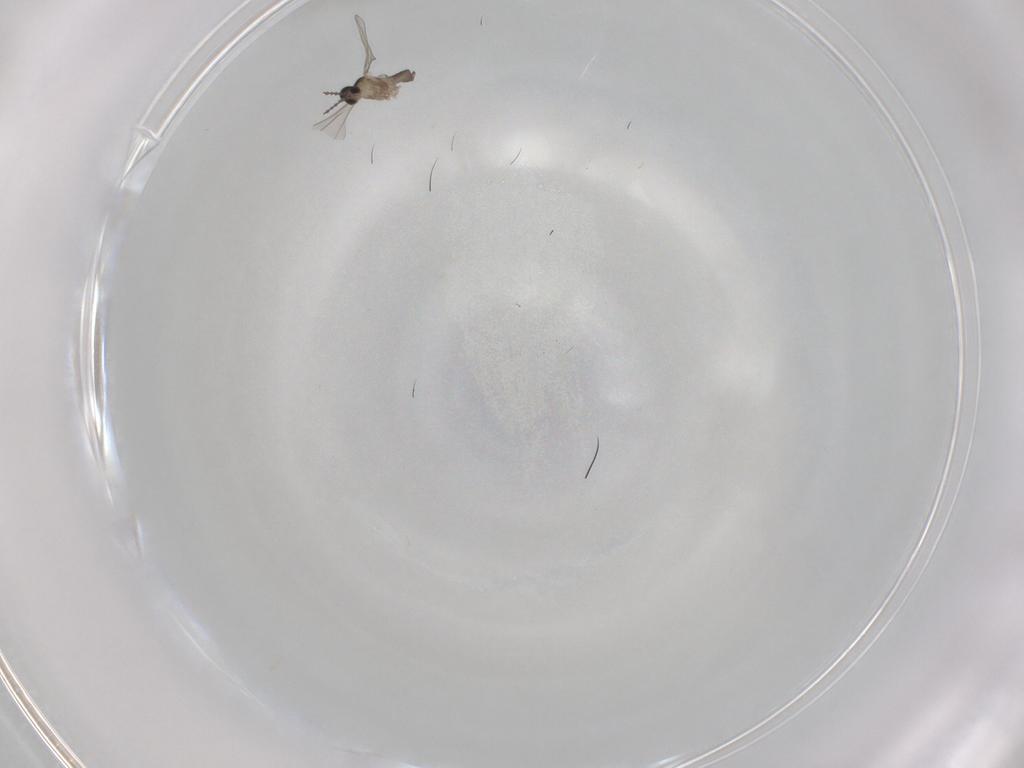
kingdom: Animalia
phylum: Arthropoda
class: Insecta
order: Diptera
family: Cecidomyiidae
